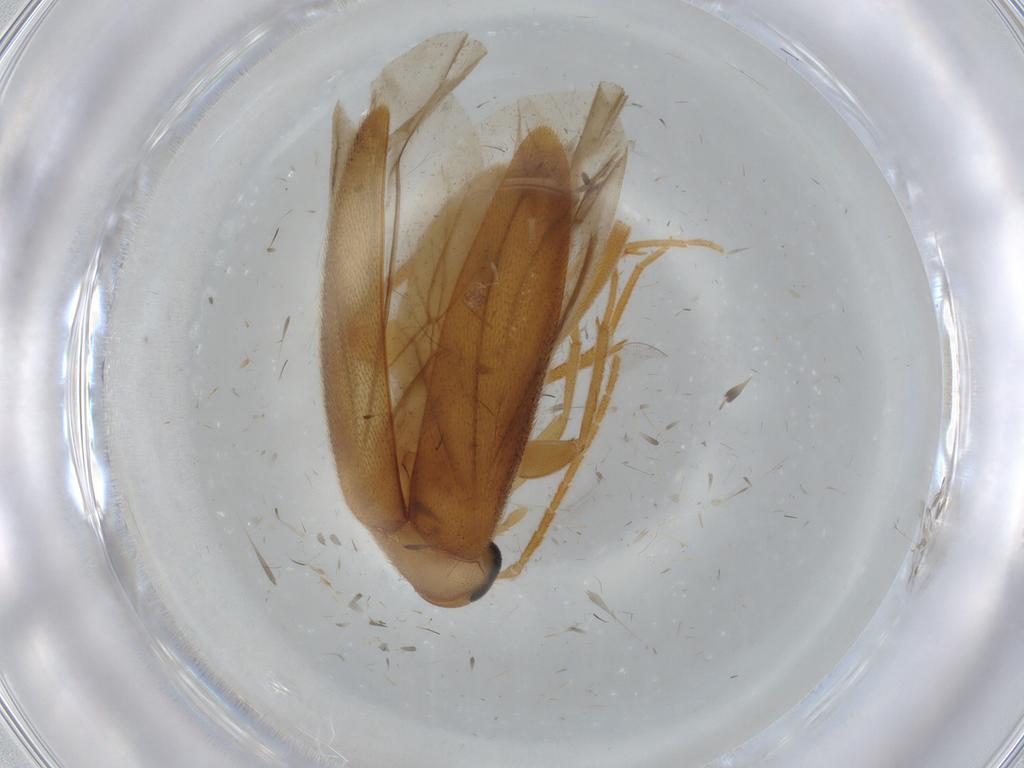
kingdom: Animalia
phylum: Arthropoda
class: Insecta
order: Coleoptera
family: Scraptiidae
